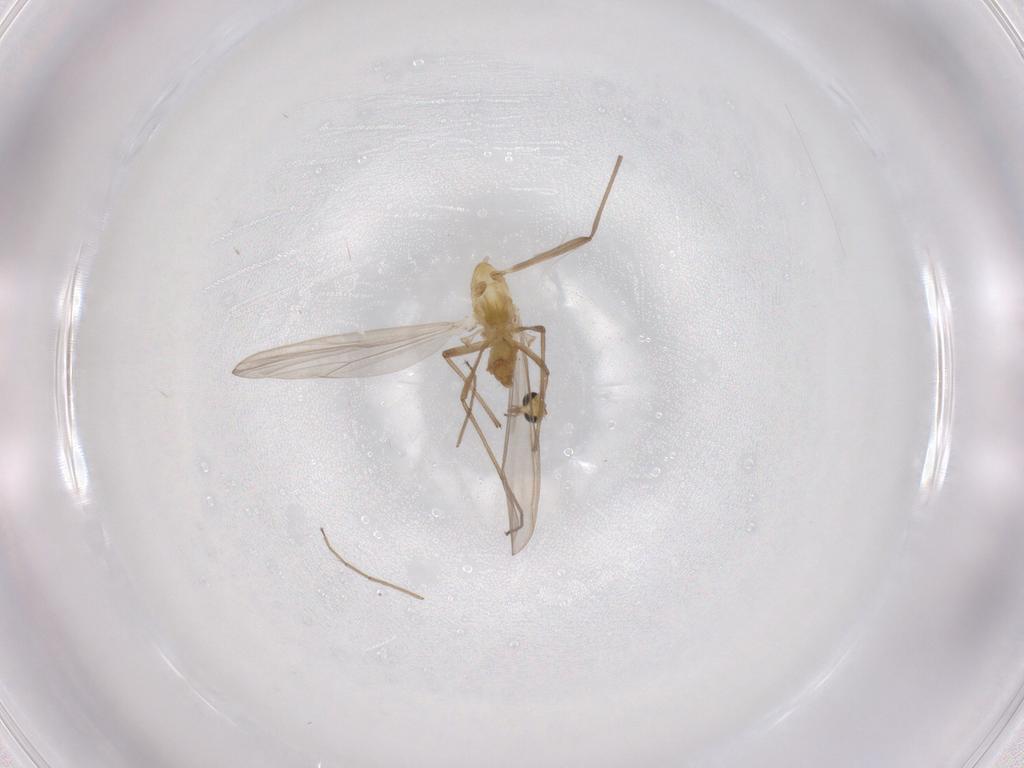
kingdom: Animalia
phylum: Arthropoda
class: Insecta
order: Diptera
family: Chironomidae
